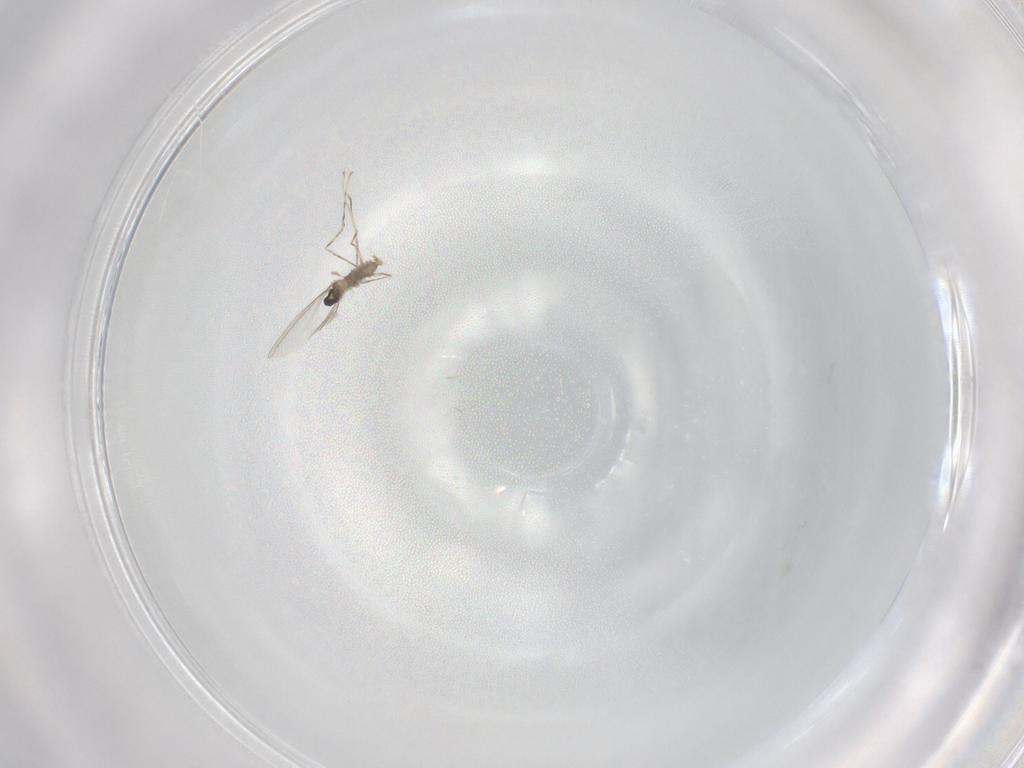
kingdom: Animalia
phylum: Arthropoda
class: Insecta
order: Diptera
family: Cecidomyiidae
